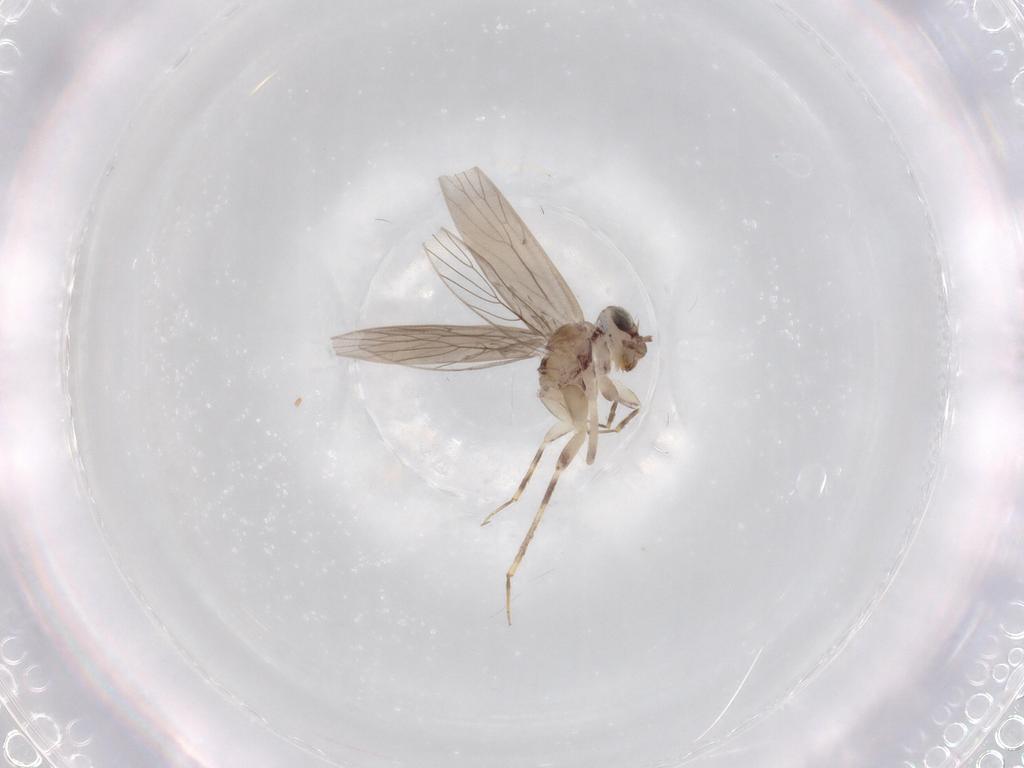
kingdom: Animalia
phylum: Arthropoda
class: Insecta
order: Psocodea
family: Lepidopsocidae
